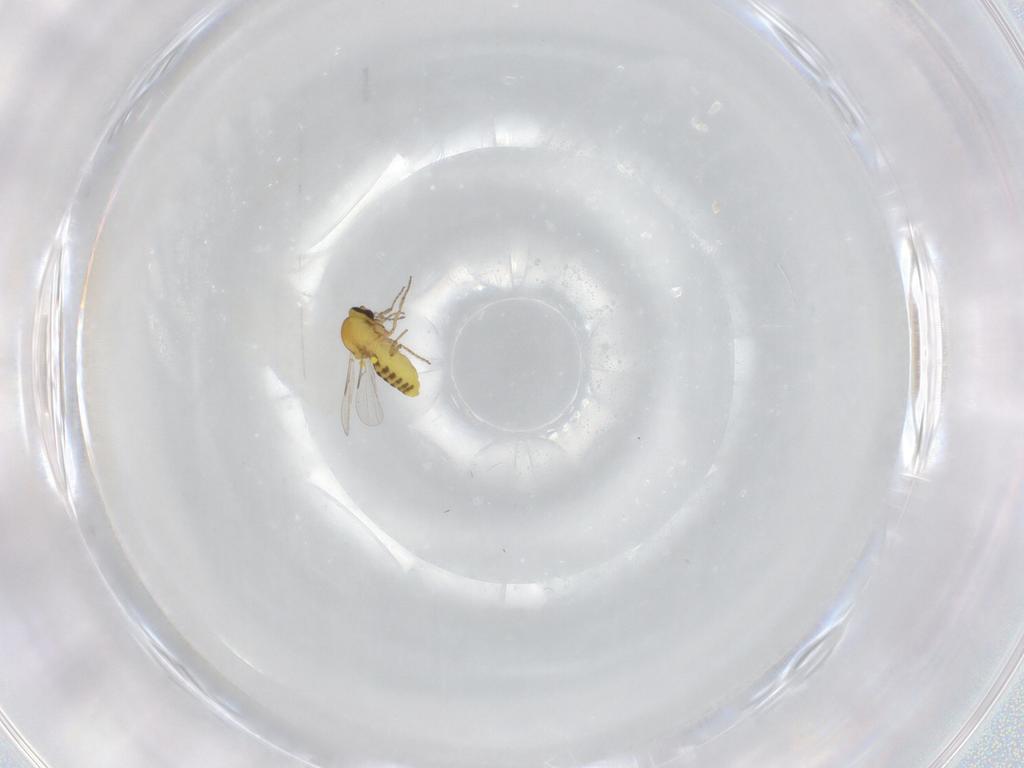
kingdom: Animalia
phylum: Arthropoda
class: Insecta
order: Diptera
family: Ceratopogonidae
